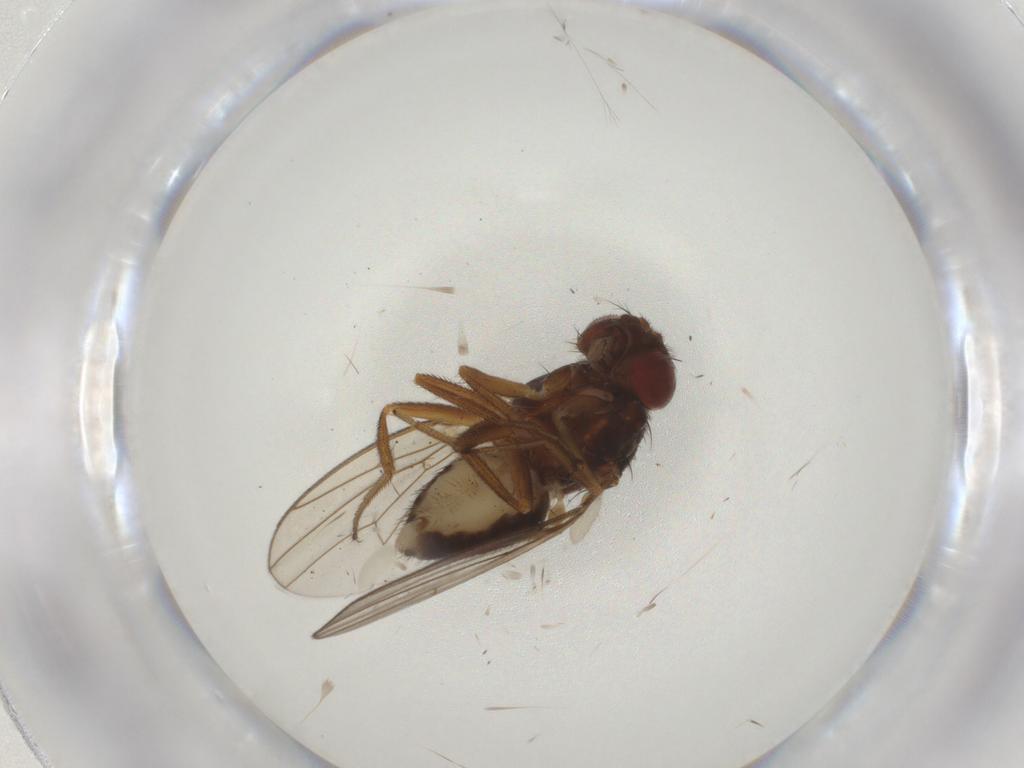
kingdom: Animalia
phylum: Arthropoda
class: Insecta
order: Diptera
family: Drosophilidae
